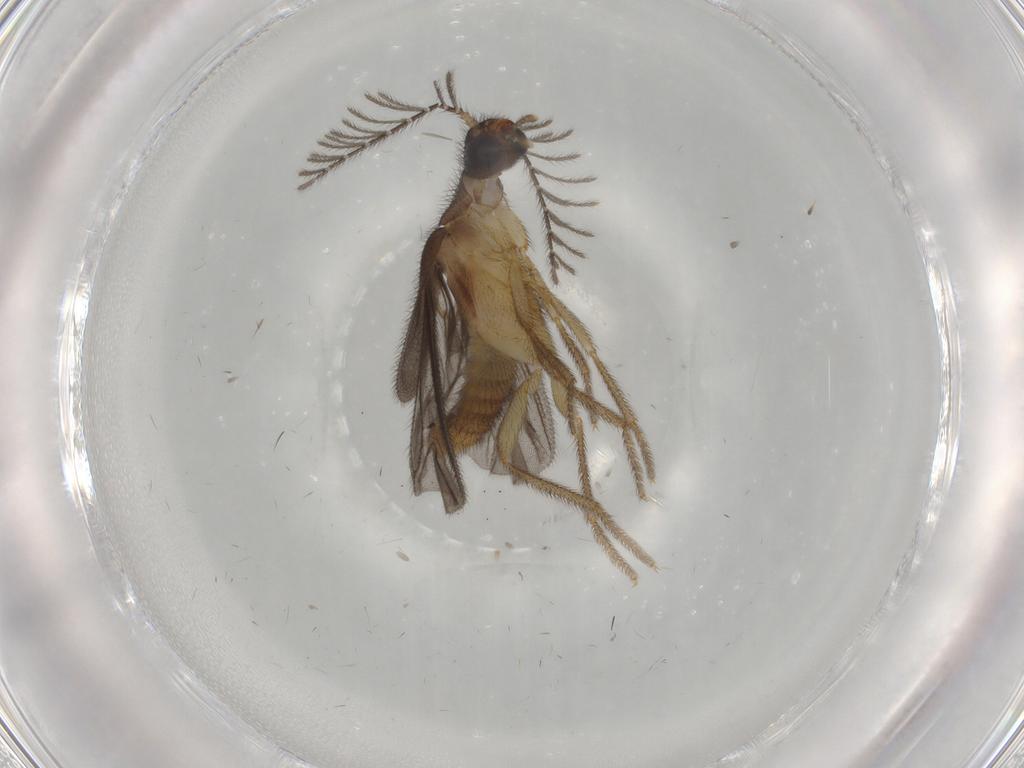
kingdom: Animalia
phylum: Arthropoda
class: Insecta
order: Coleoptera
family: Phengodidae
